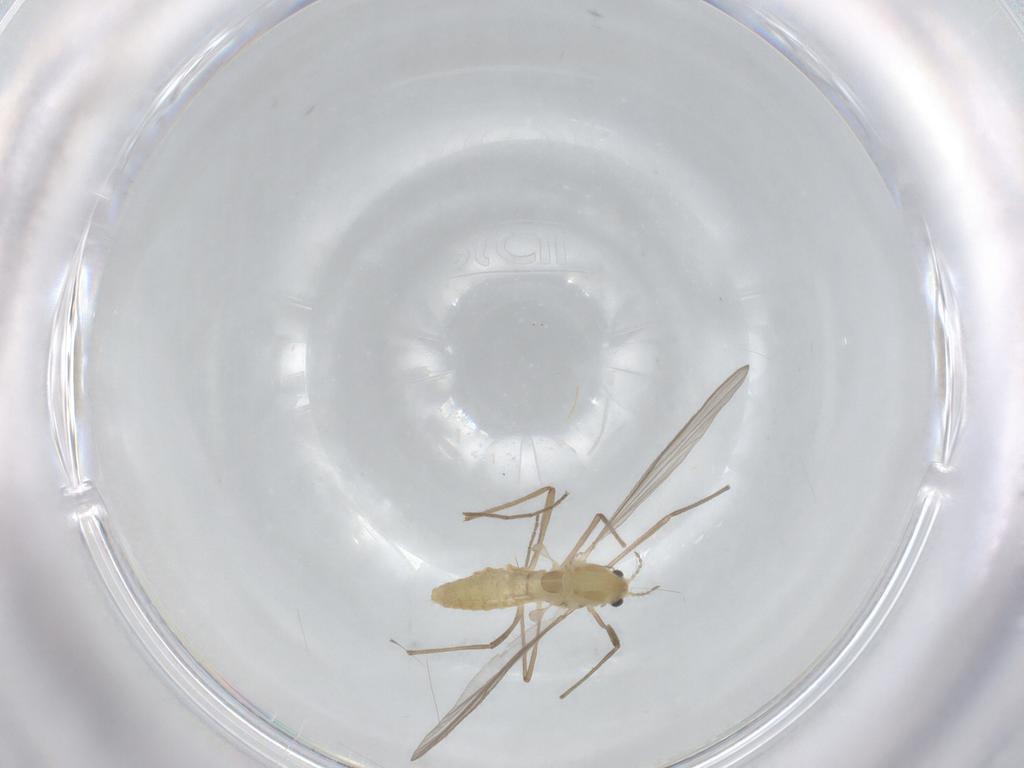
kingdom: Animalia
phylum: Arthropoda
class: Insecta
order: Diptera
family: Chironomidae
